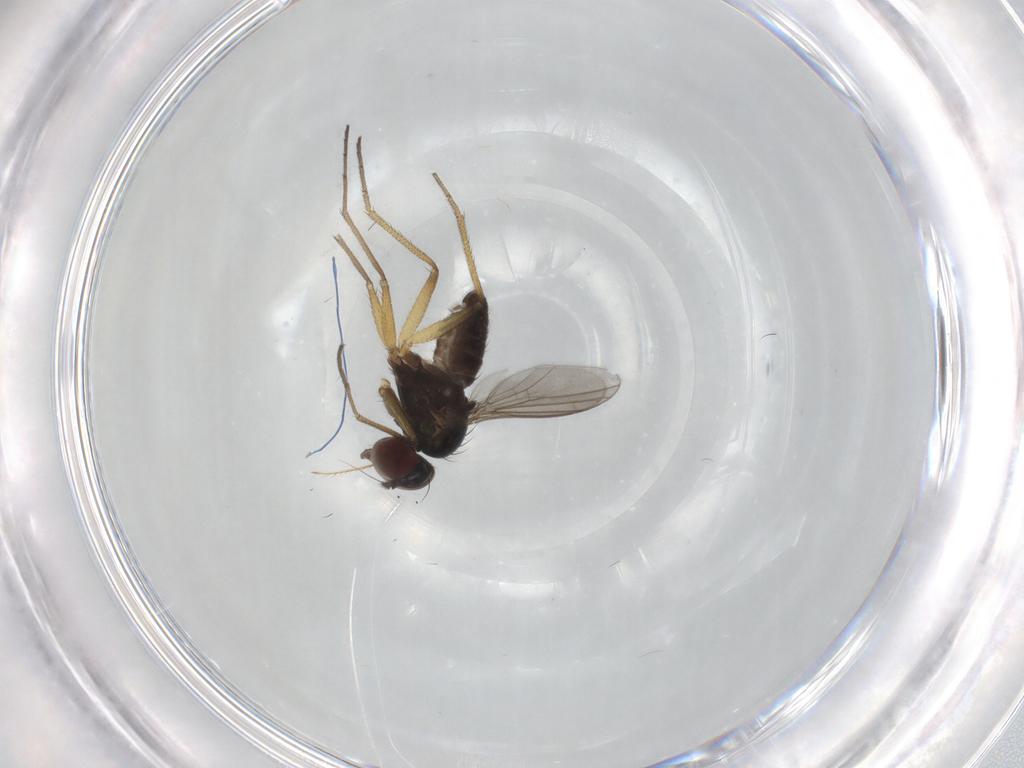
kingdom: Animalia
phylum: Arthropoda
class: Insecta
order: Diptera
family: Dolichopodidae
